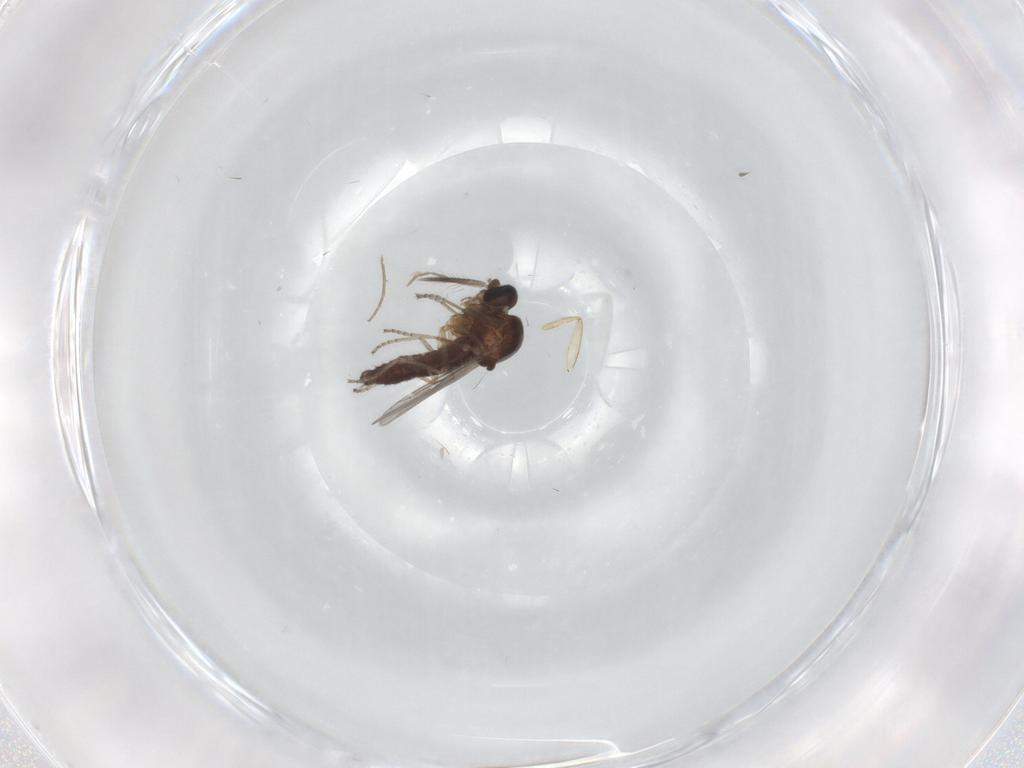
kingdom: Animalia
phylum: Arthropoda
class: Insecta
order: Diptera
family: Ceratopogonidae
